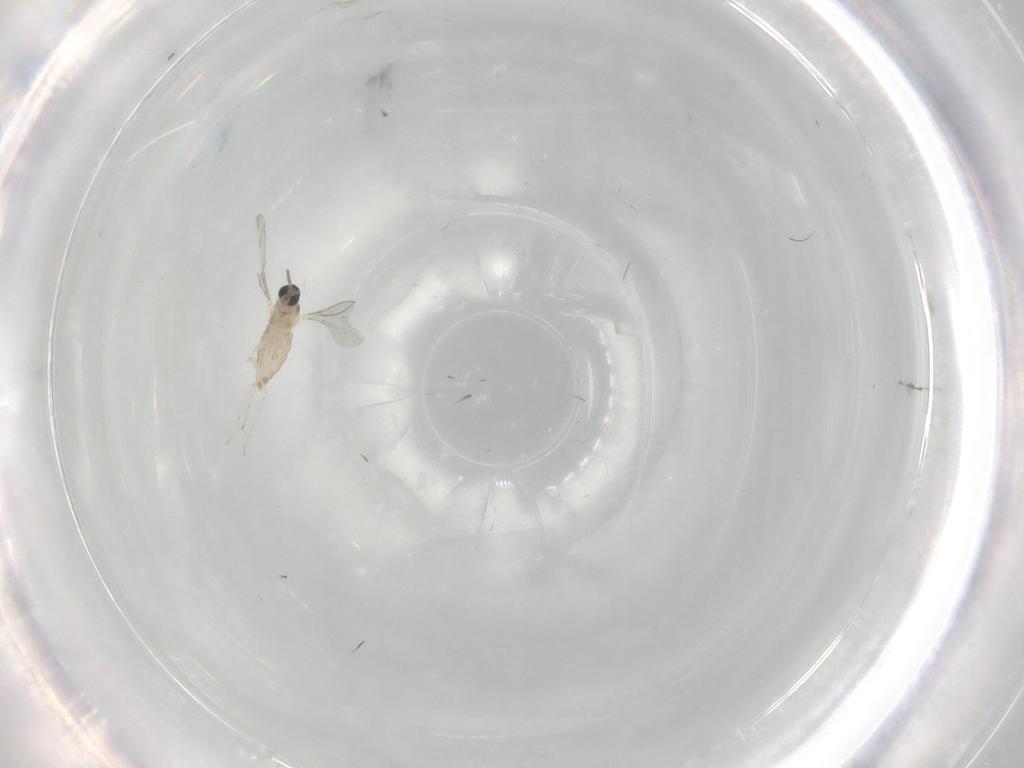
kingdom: Animalia
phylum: Arthropoda
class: Insecta
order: Diptera
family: Cecidomyiidae
